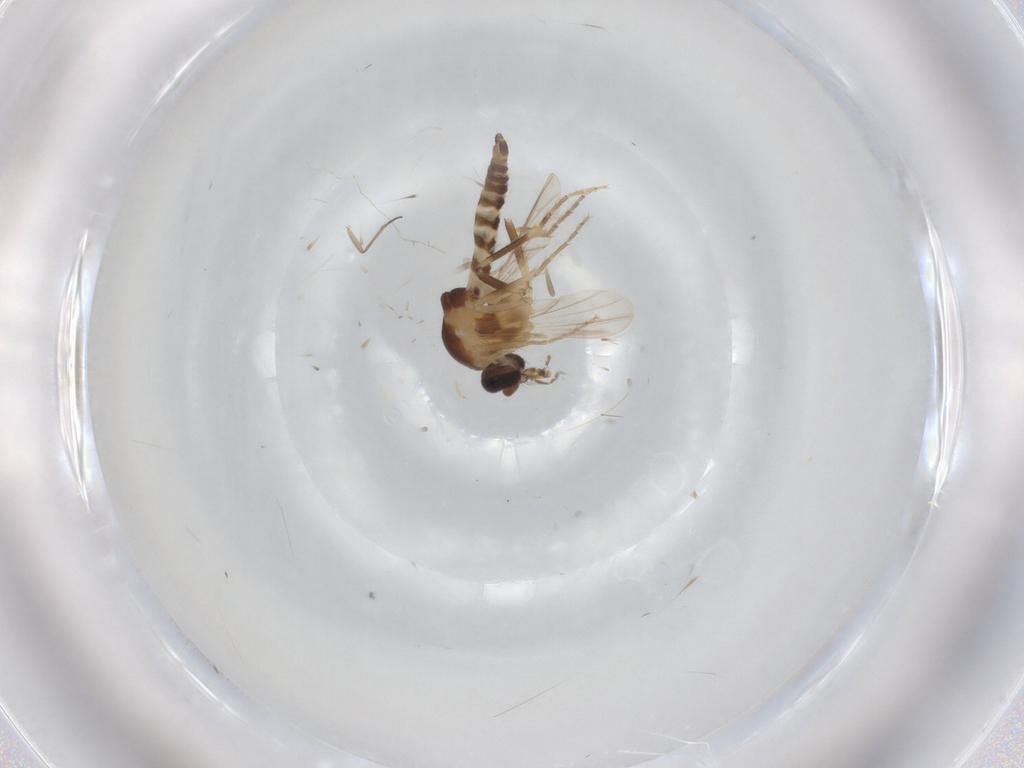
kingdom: Animalia
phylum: Arthropoda
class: Insecta
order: Diptera
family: Ceratopogonidae
